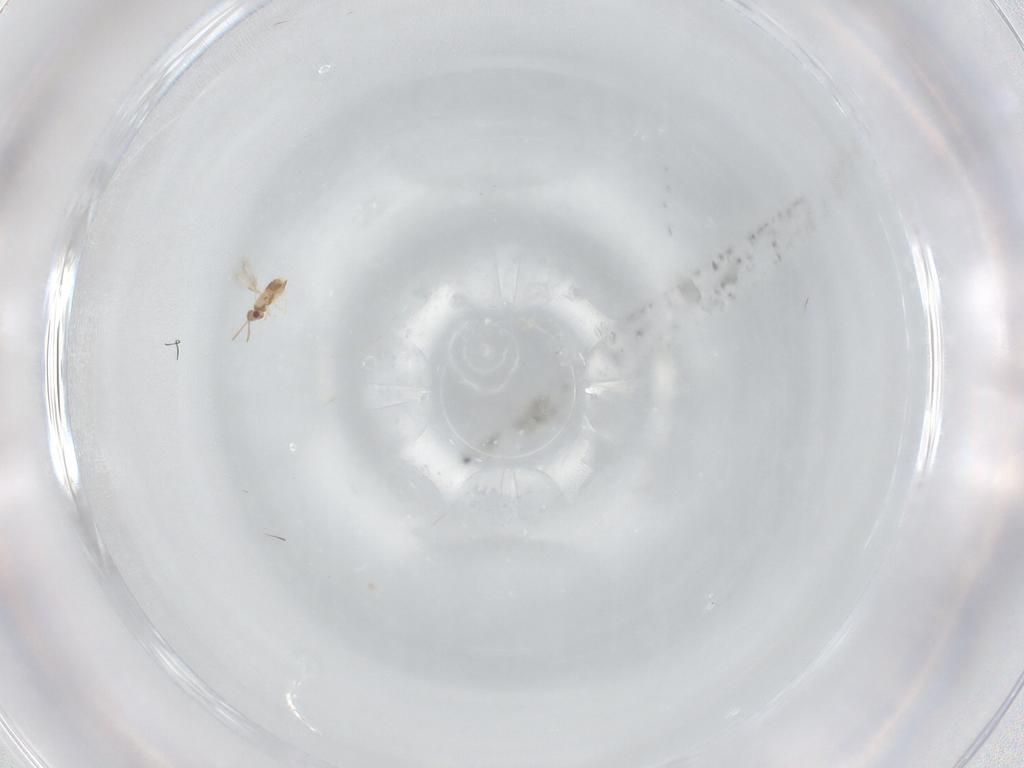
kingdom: Animalia
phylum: Arthropoda
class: Insecta
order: Hymenoptera
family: Aphelinidae
